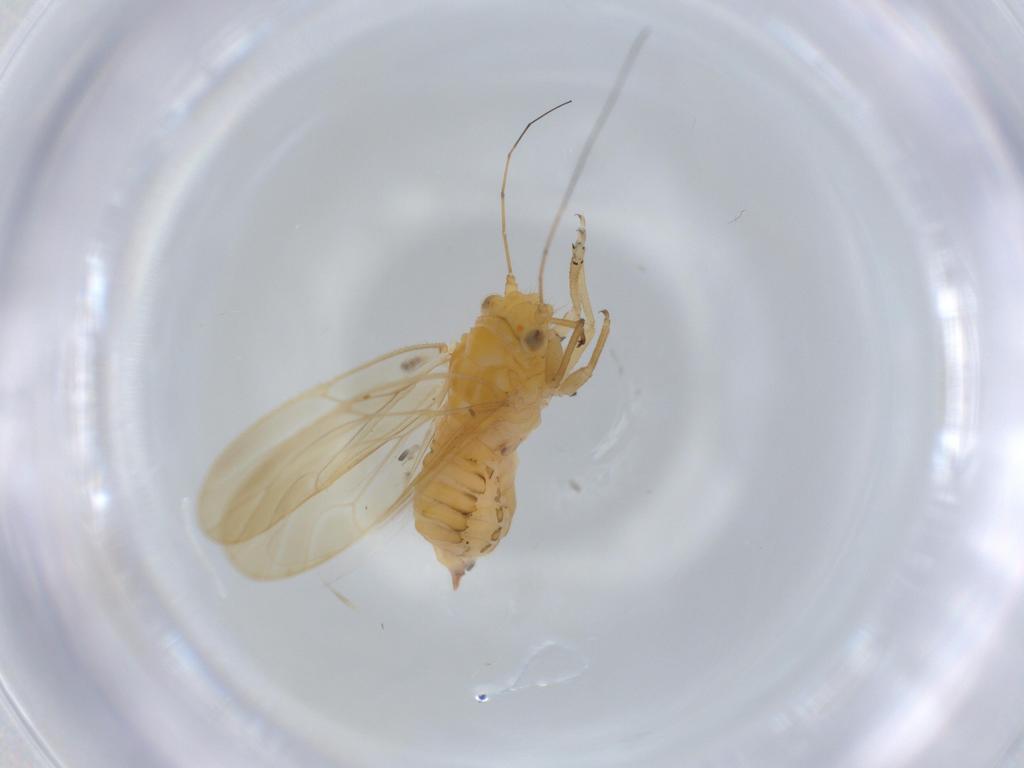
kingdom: Animalia
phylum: Arthropoda
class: Insecta
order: Hemiptera
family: Psyllidae
